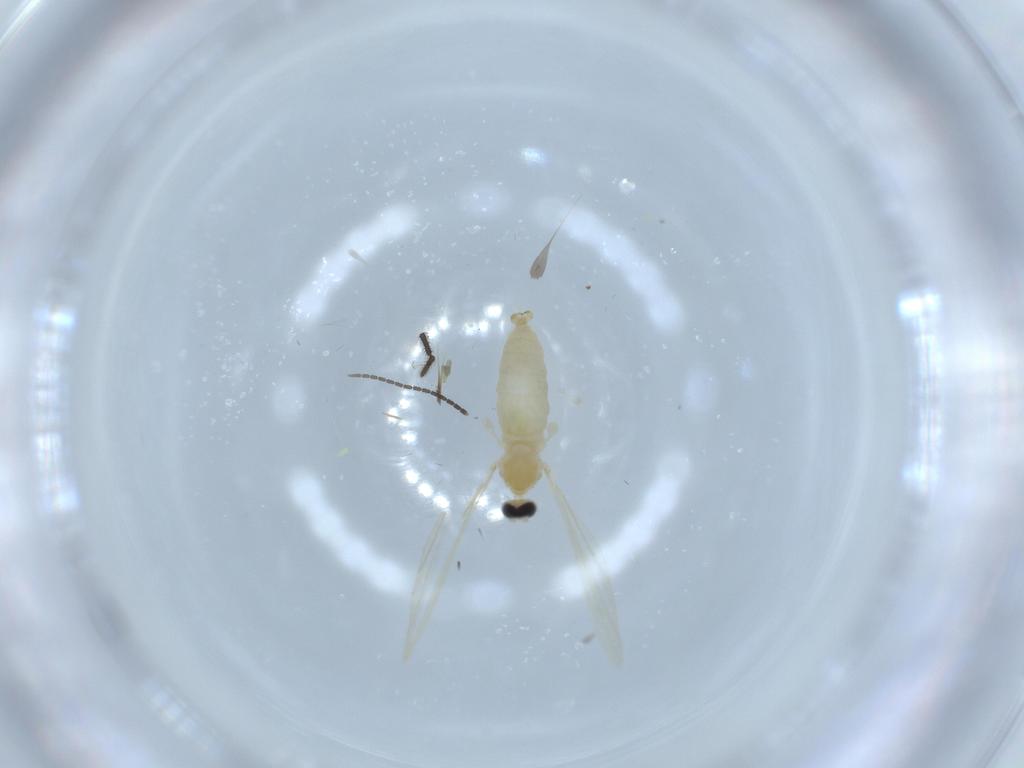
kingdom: Animalia
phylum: Arthropoda
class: Insecta
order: Diptera
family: Cecidomyiidae
